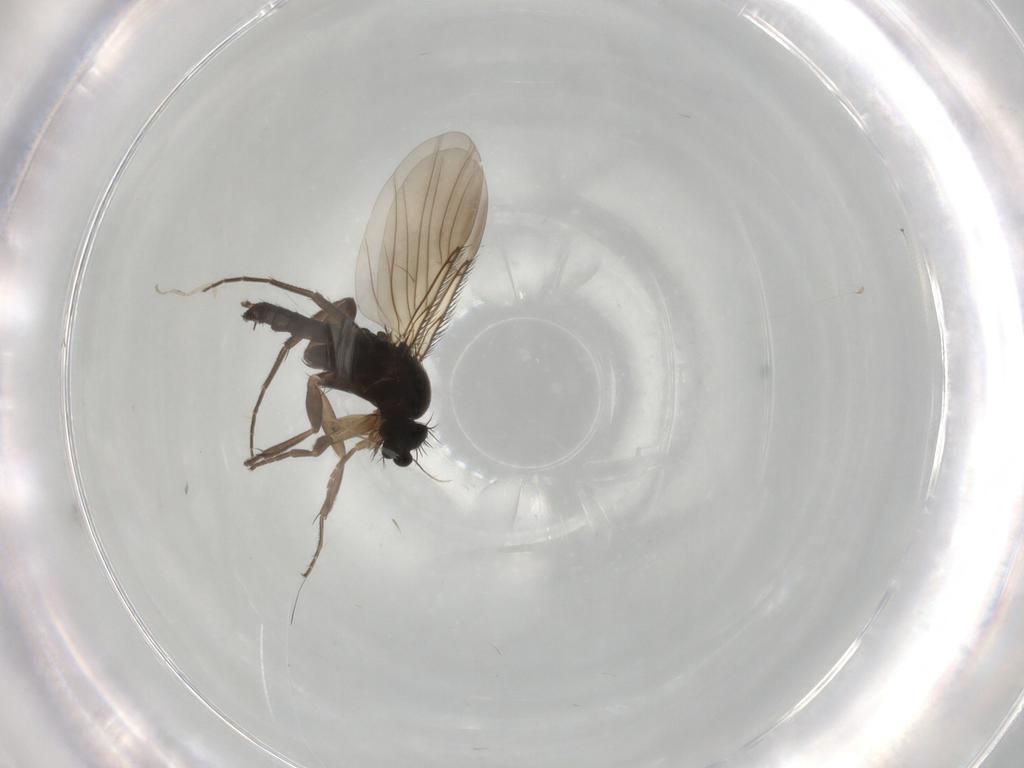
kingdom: Animalia
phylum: Arthropoda
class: Insecta
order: Diptera
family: Phoridae
